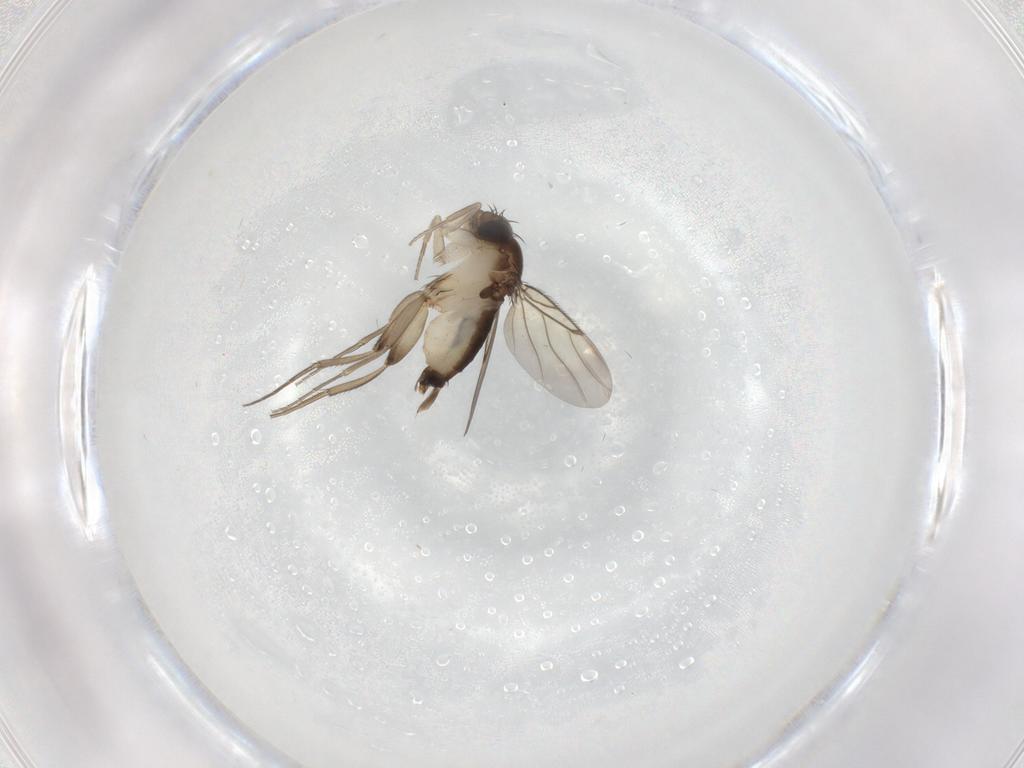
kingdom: Animalia
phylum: Arthropoda
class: Insecta
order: Diptera
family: Phoridae
